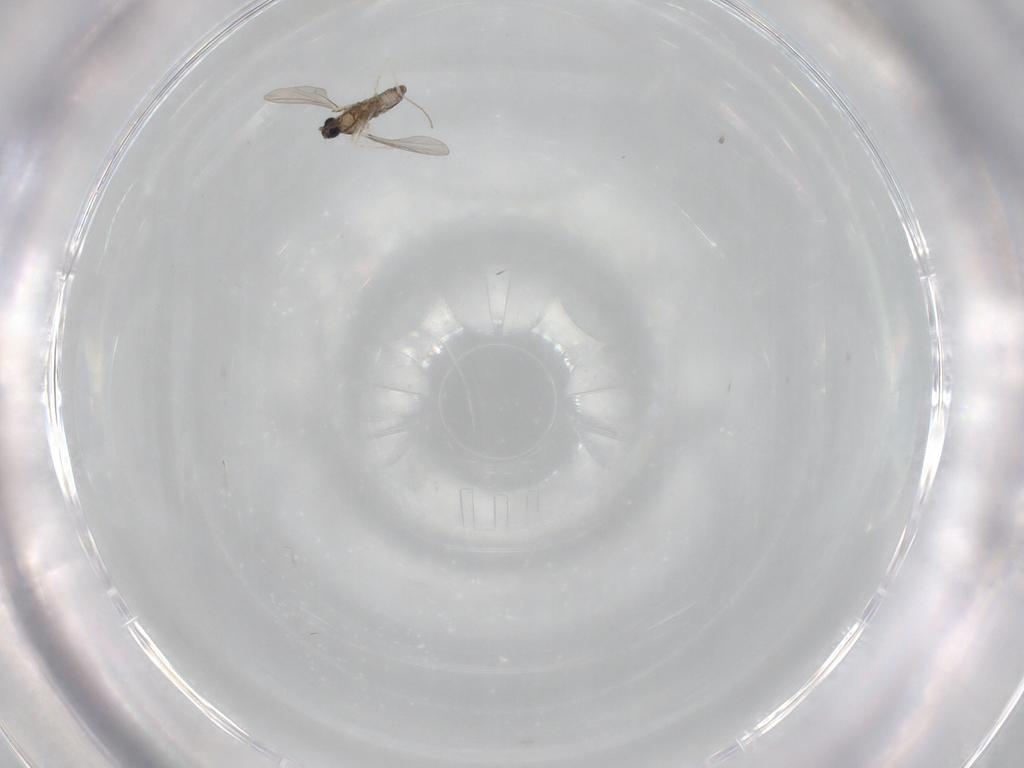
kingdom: Animalia
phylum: Arthropoda
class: Insecta
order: Diptera
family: Cecidomyiidae
